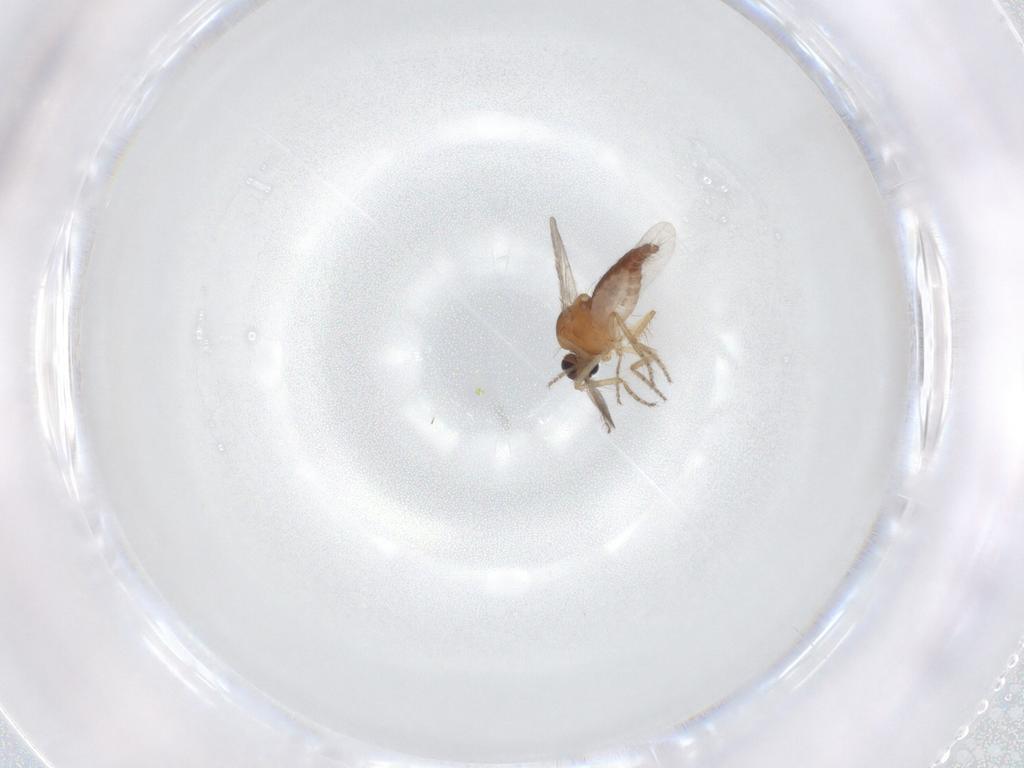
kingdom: Animalia
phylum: Arthropoda
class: Insecta
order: Diptera
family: Ceratopogonidae
